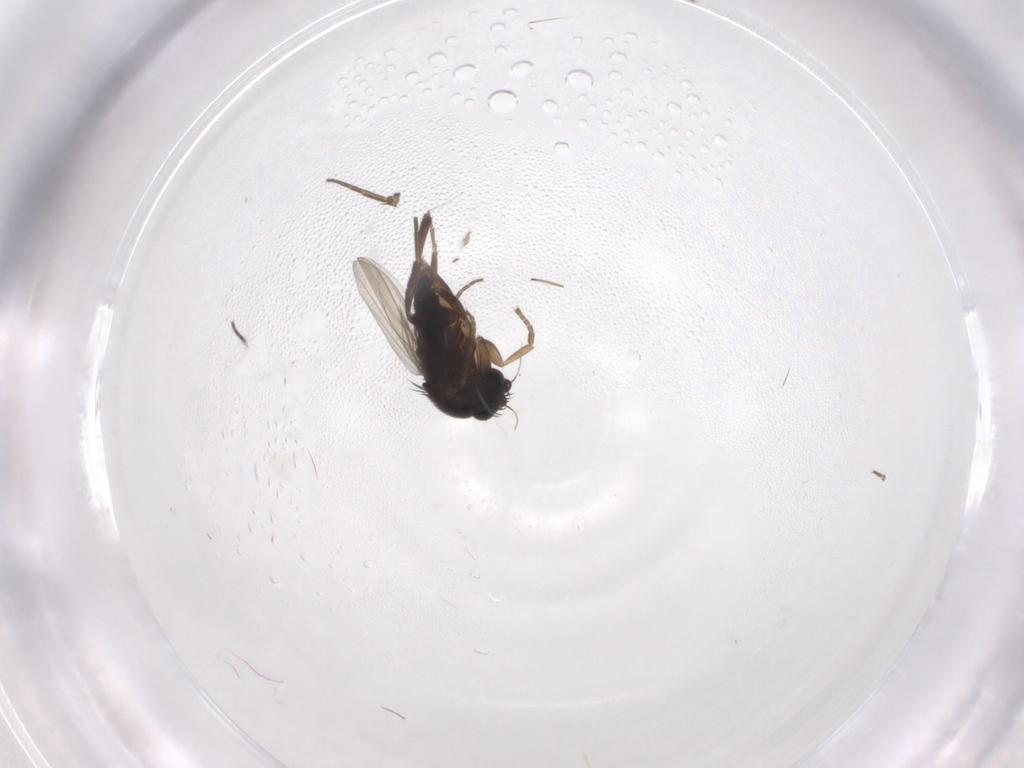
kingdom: Animalia
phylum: Arthropoda
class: Insecta
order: Diptera
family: Phoridae
